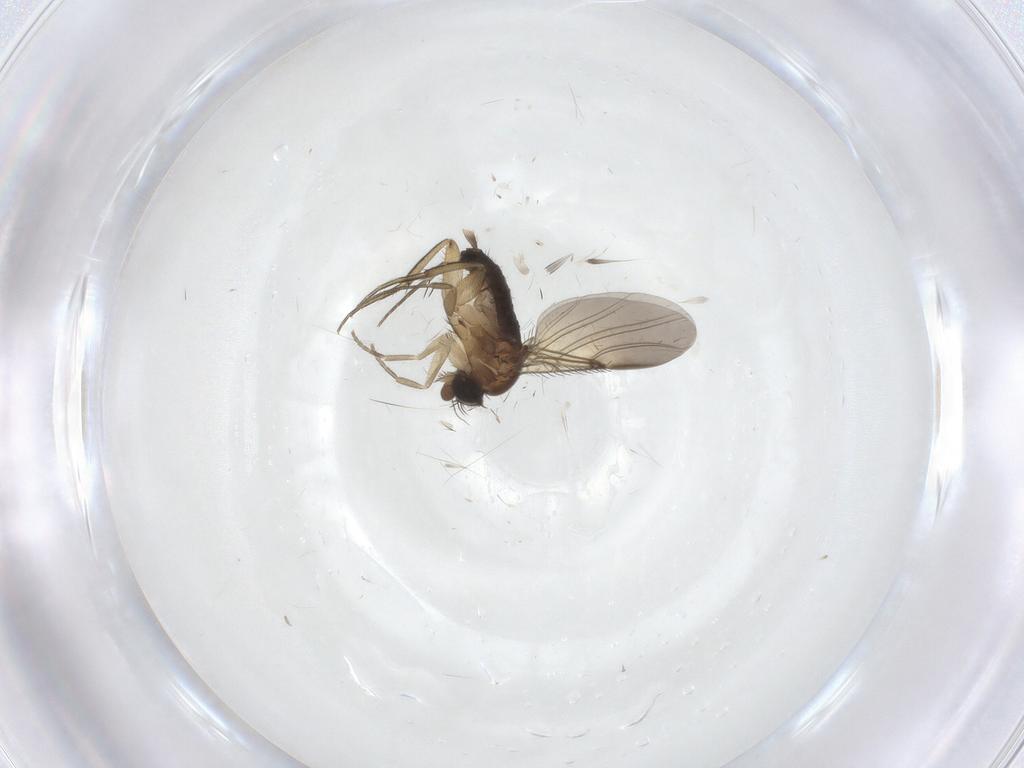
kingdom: Animalia
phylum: Arthropoda
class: Insecta
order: Diptera
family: Phoridae
